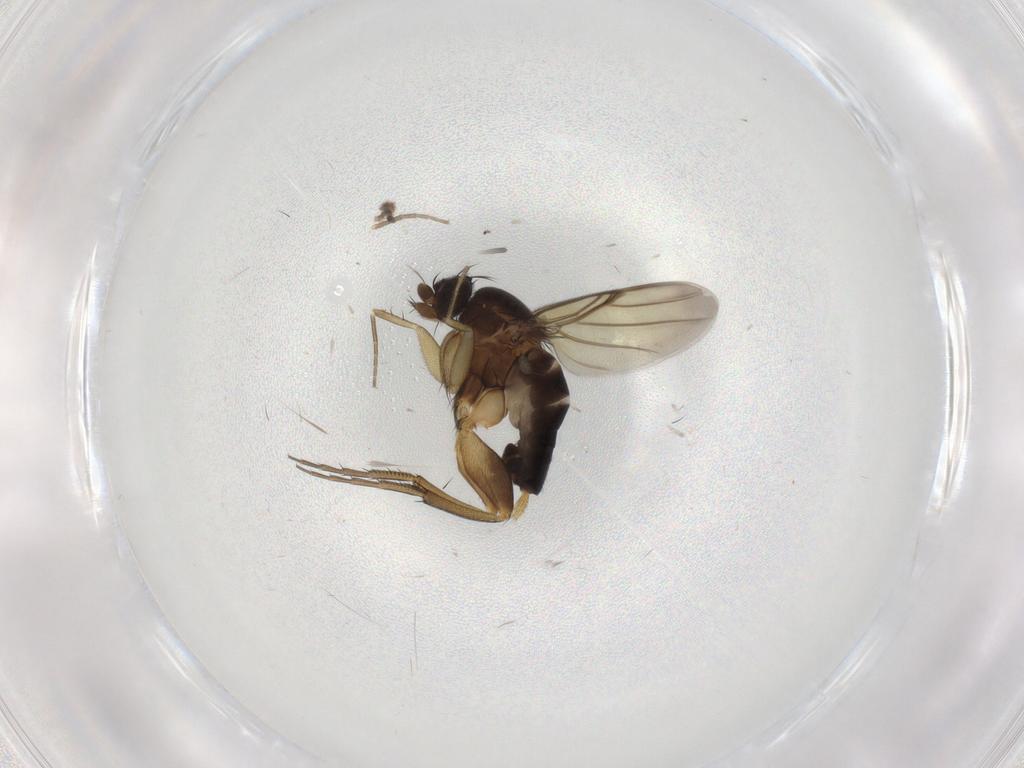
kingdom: Animalia
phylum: Arthropoda
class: Insecta
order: Diptera
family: Phoridae
